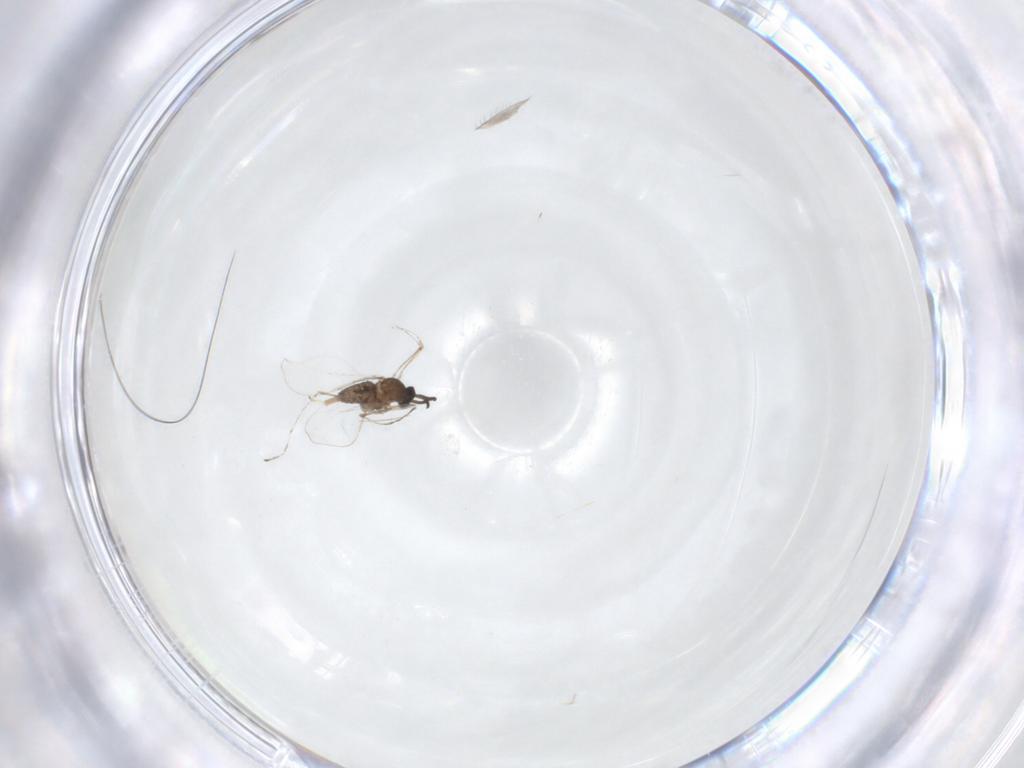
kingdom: Animalia
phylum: Arthropoda
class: Insecta
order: Diptera
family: Cecidomyiidae
